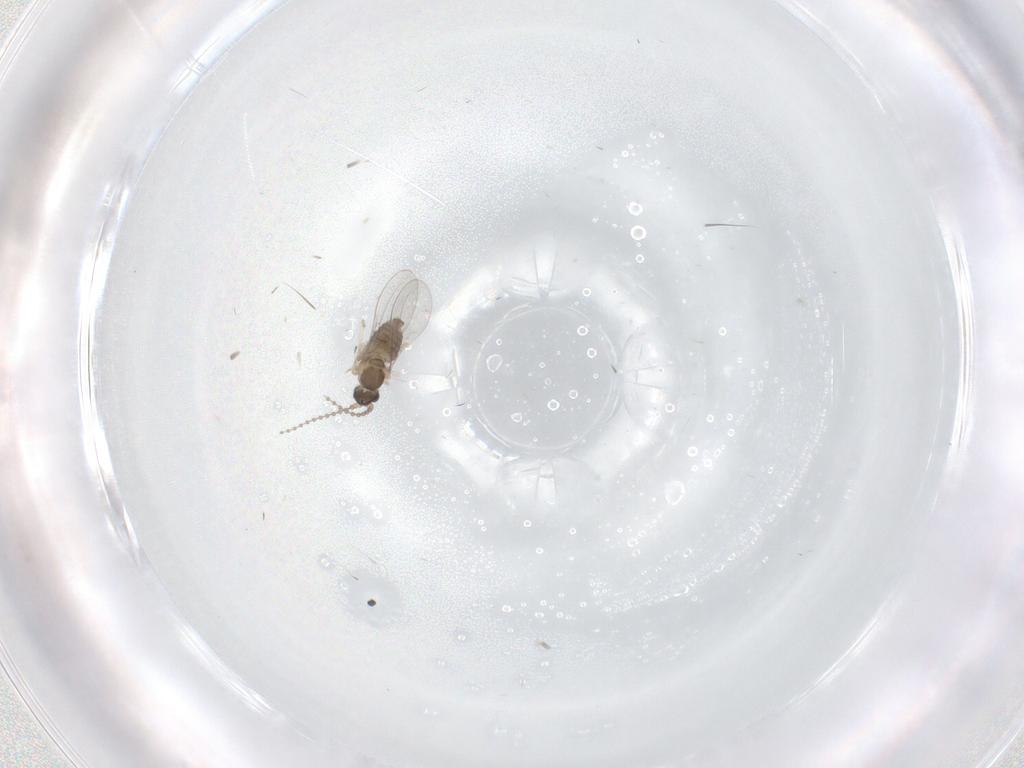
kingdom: Animalia
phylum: Arthropoda
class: Insecta
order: Diptera
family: Cecidomyiidae
